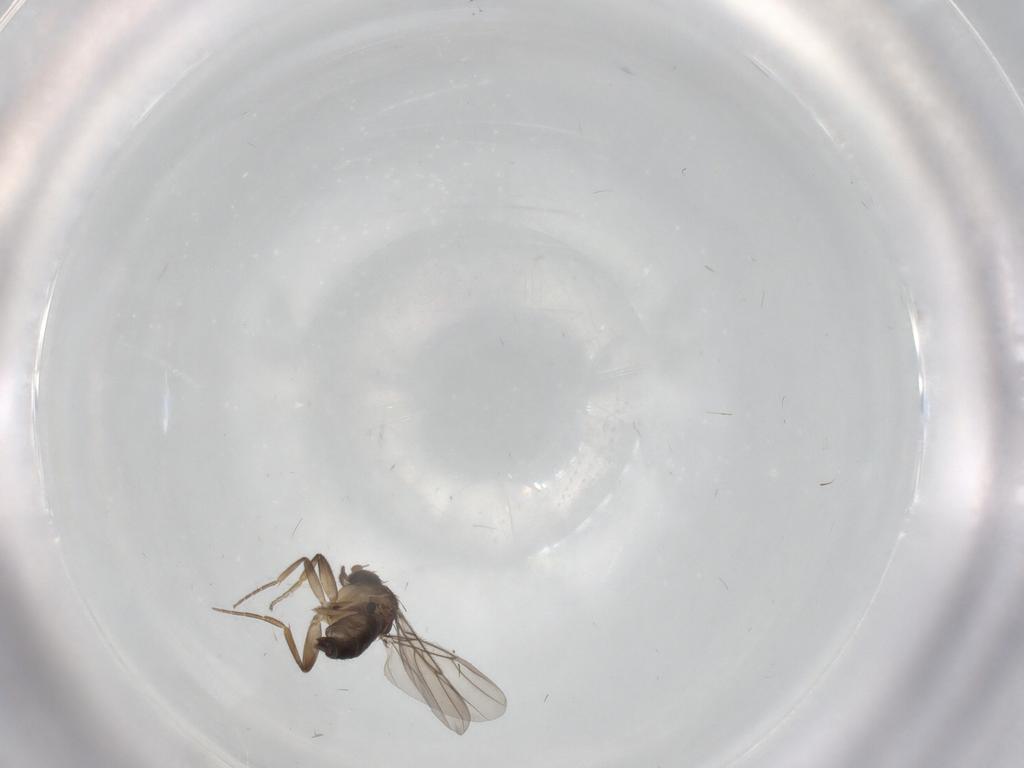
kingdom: Animalia
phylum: Arthropoda
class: Insecta
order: Diptera
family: Phoridae
